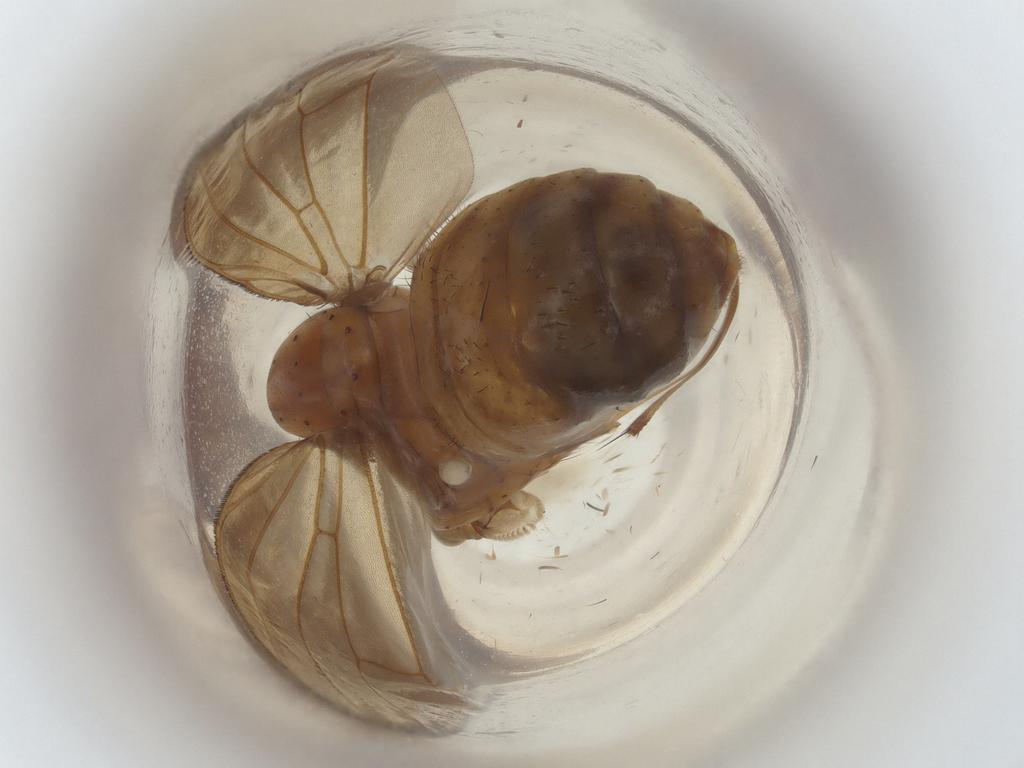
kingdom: Animalia
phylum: Arthropoda
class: Insecta
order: Diptera
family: Lauxaniidae
